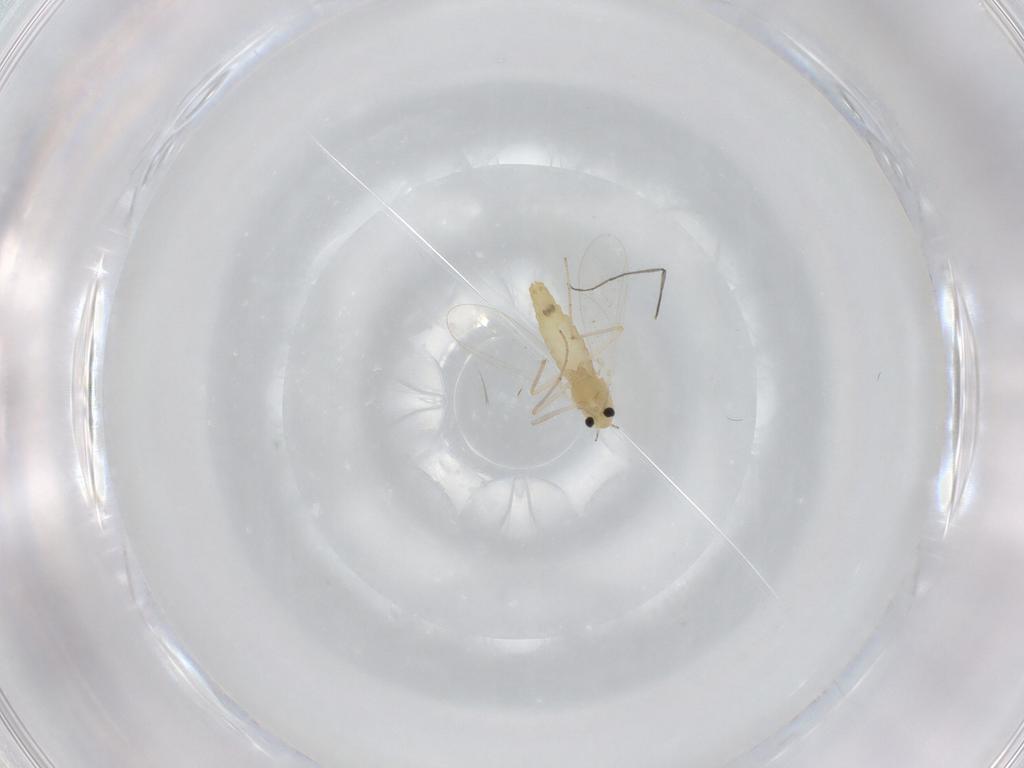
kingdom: Animalia
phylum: Arthropoda
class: Insecta
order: Diptera
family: Chironomidae
